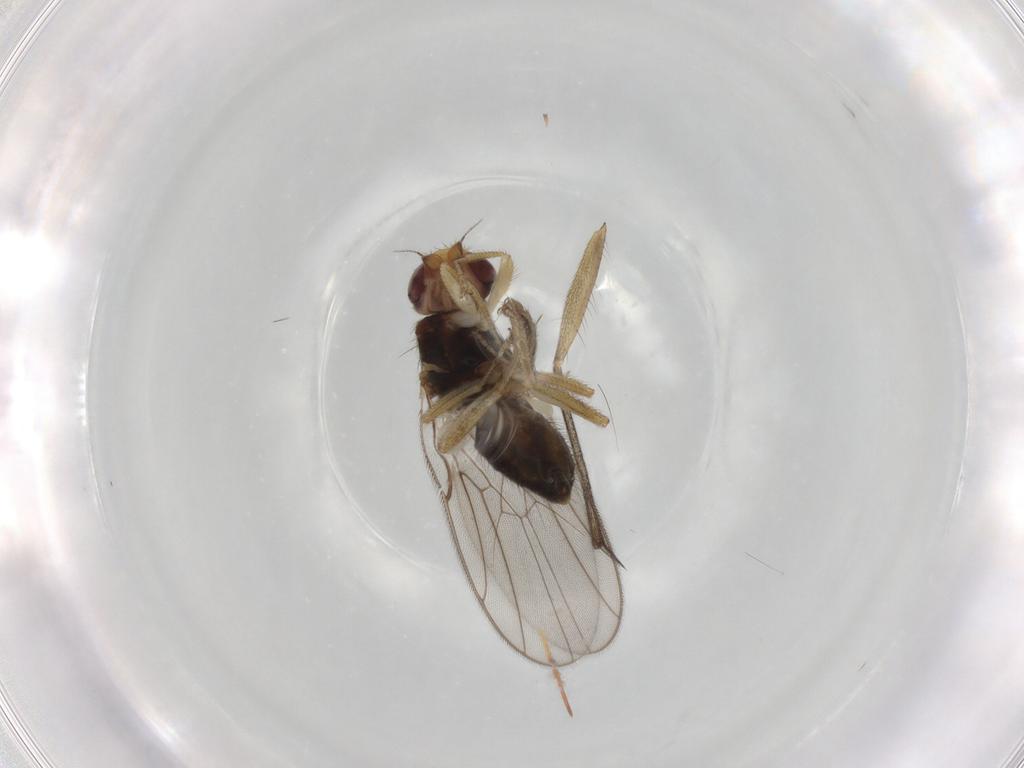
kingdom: Animalia
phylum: Arthropoda
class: Insecta
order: Diptera
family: Chloropidae
